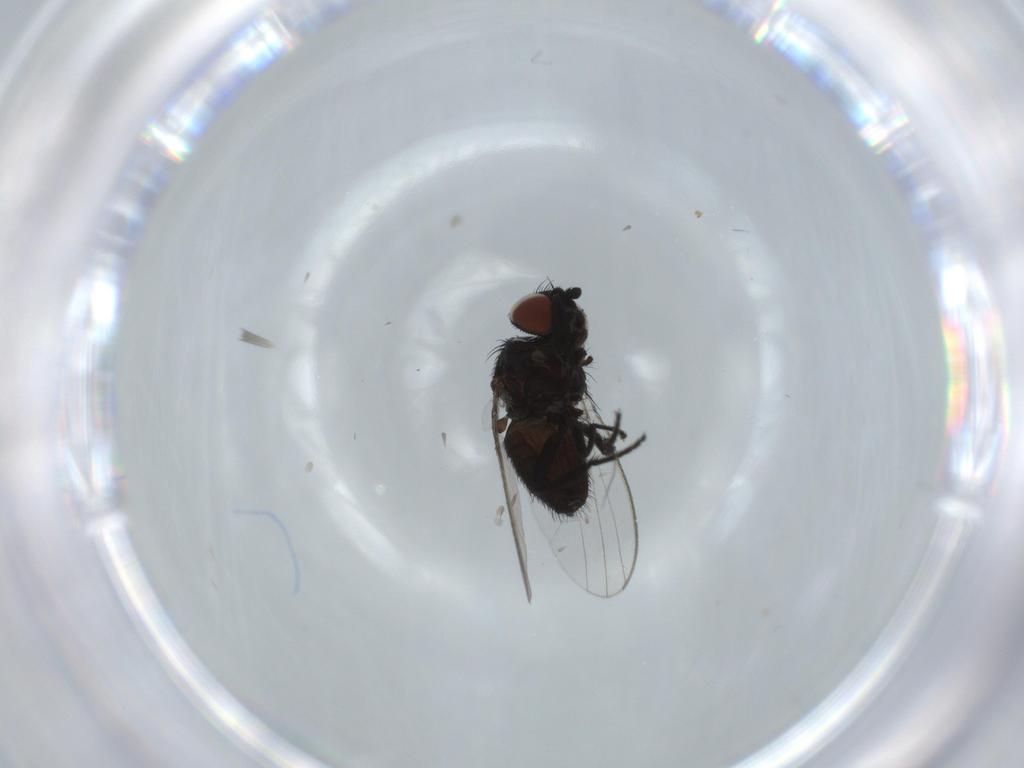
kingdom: Animalia
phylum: Arthropoda
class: Insecta
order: Diptera
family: Milichiidae
